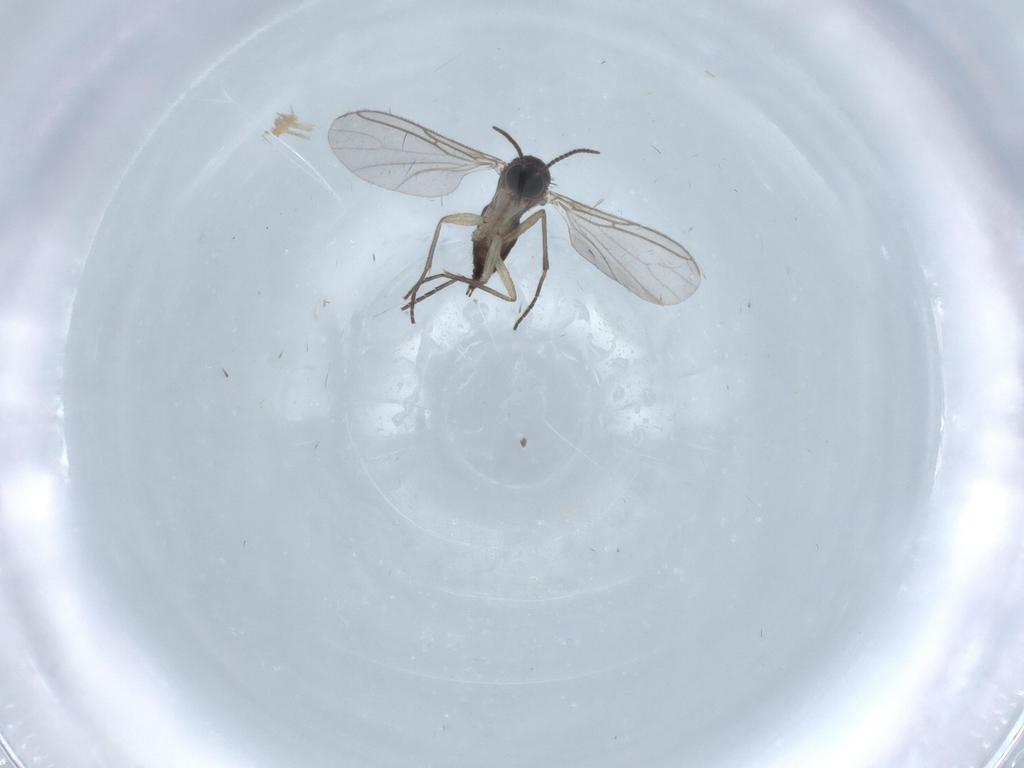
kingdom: Animalia
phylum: Arthropoda
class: Insecta
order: Diptera
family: Sciaridae
